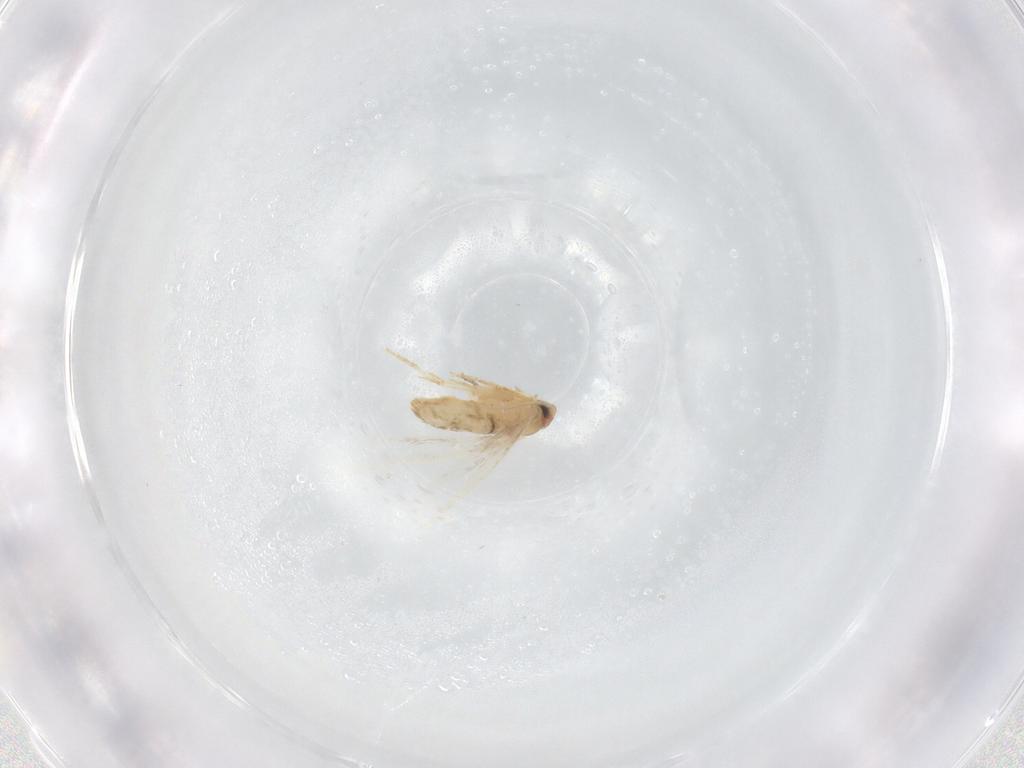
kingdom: Animalia
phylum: Arthropoda
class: Insecta
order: Lepidoptera
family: Nepticulidae
